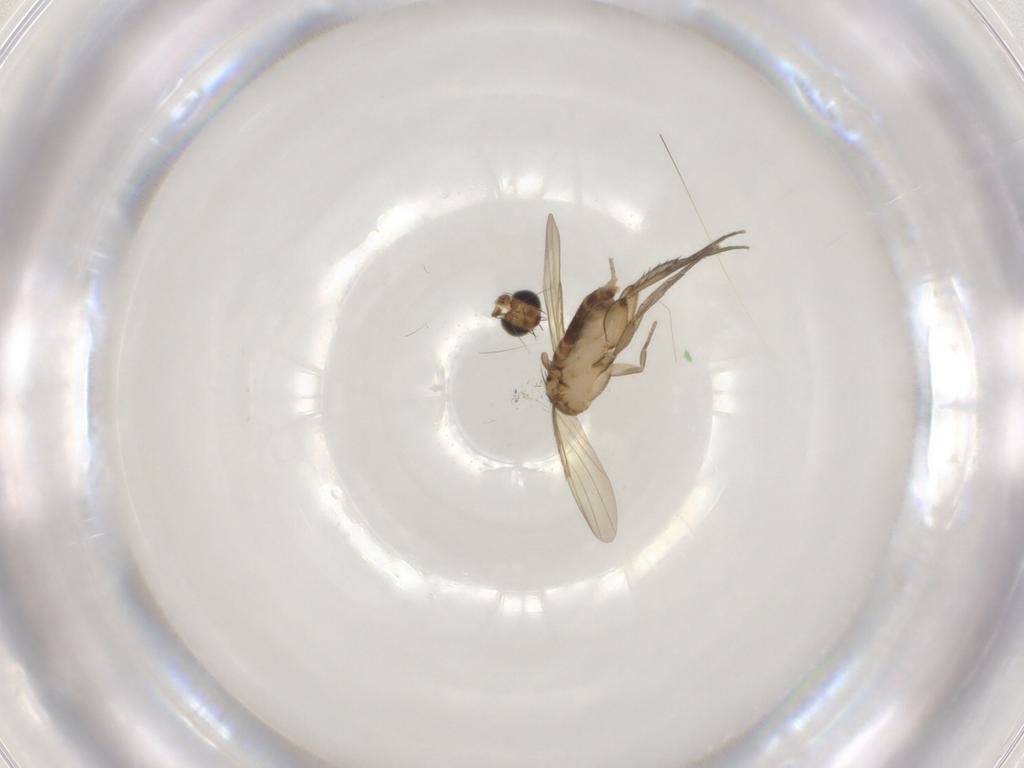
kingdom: Animalia
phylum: Arthropoda
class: Insecta
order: Diptera
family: Phoridae
